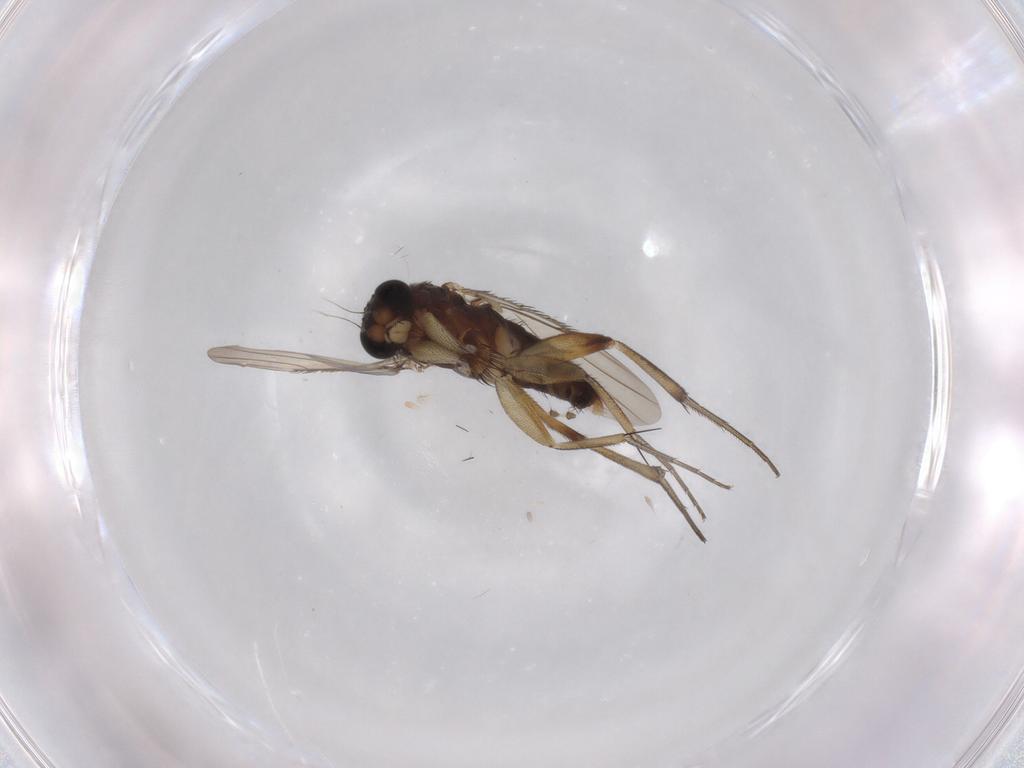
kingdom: Animalia
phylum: Arthropoda
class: Insecta
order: Diptera
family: Phoridae
